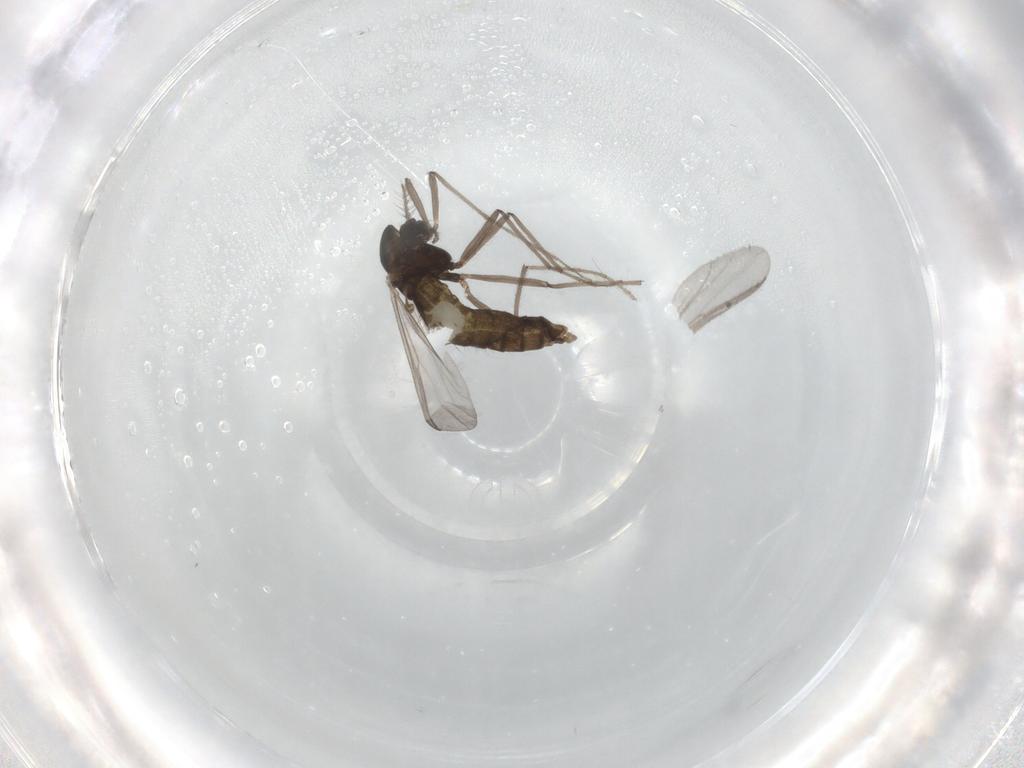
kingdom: Animalia
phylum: Arthropoda
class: Insecta
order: Diptera
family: Chironomidae
